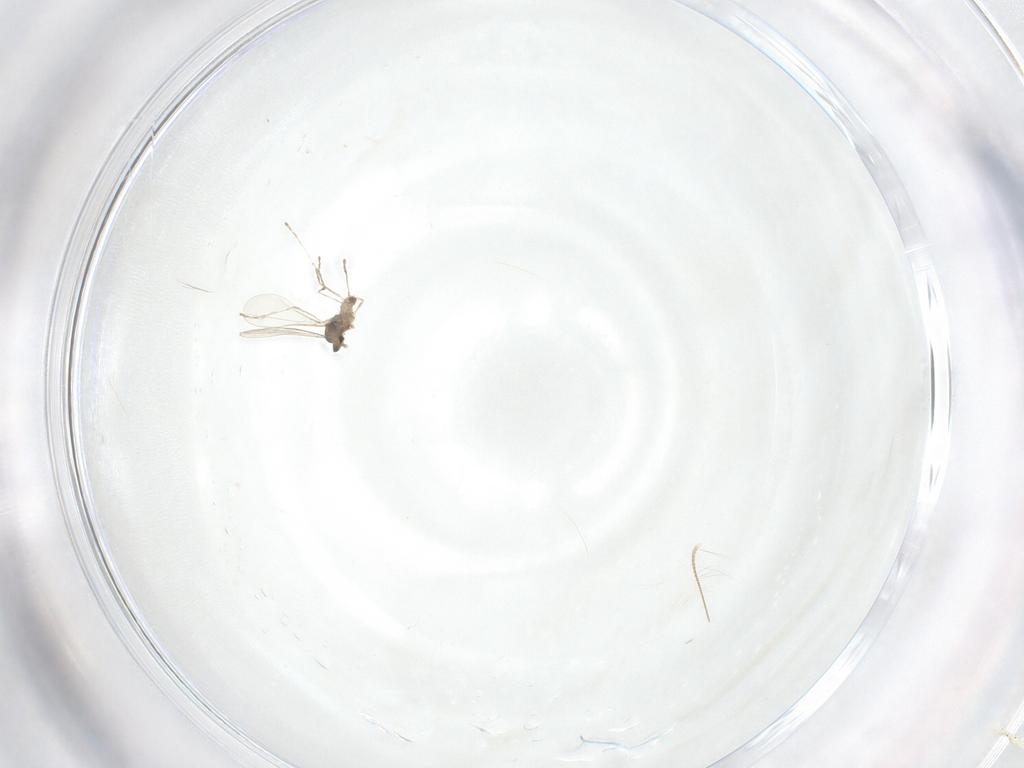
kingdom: Animalia
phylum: Arthropoda
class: Insecta
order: Diptera
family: Cecidomyiidae
